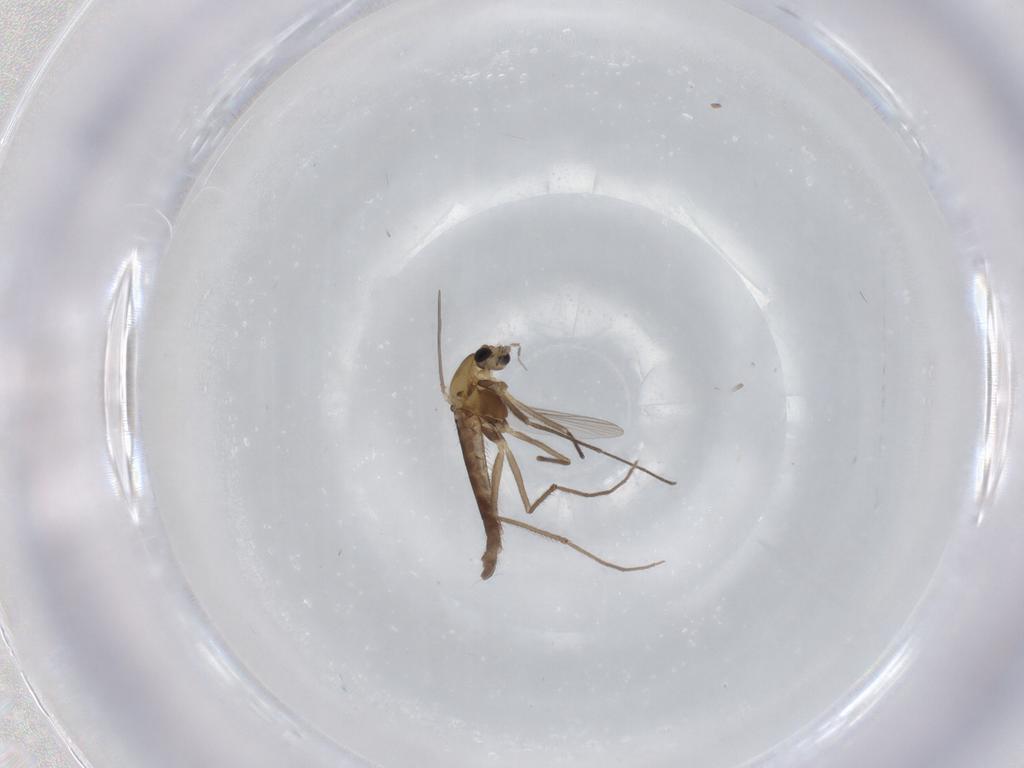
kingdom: Animalia
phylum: Arthropoda
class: Insecta
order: Diptera
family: Chironomidae
